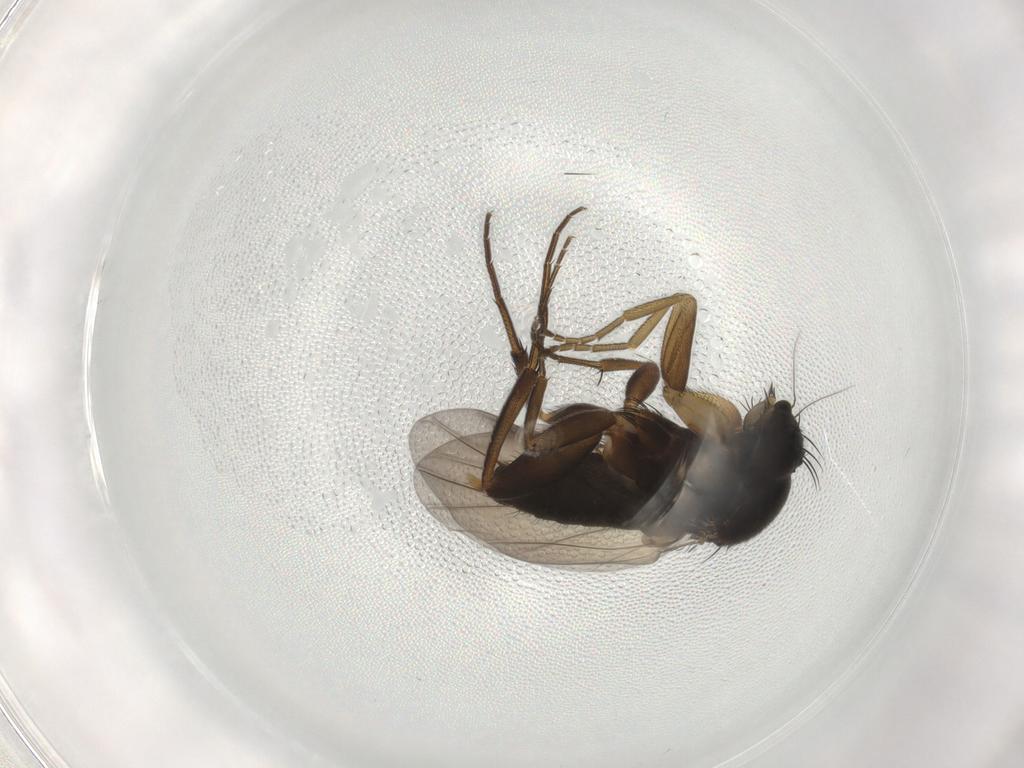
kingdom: Animalia
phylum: Arthropoda
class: Insecta
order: Diptera
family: Phoridae
